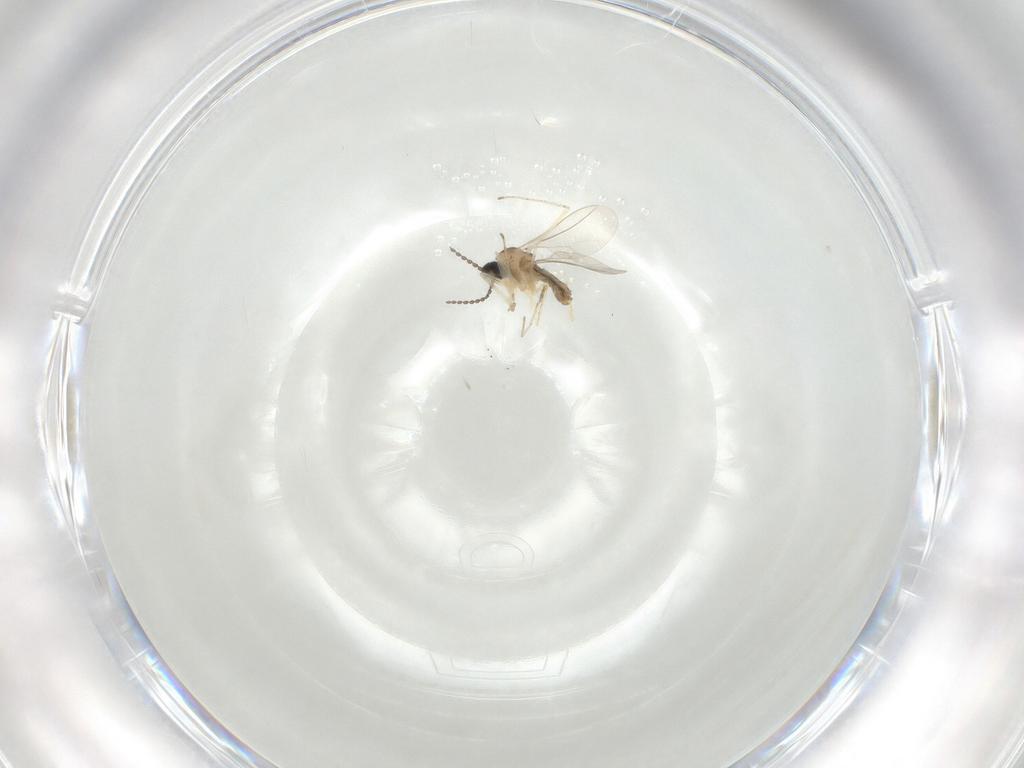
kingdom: Animalia
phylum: Arthropoda
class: Insecta
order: Diptera
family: Cecidomyiidae
